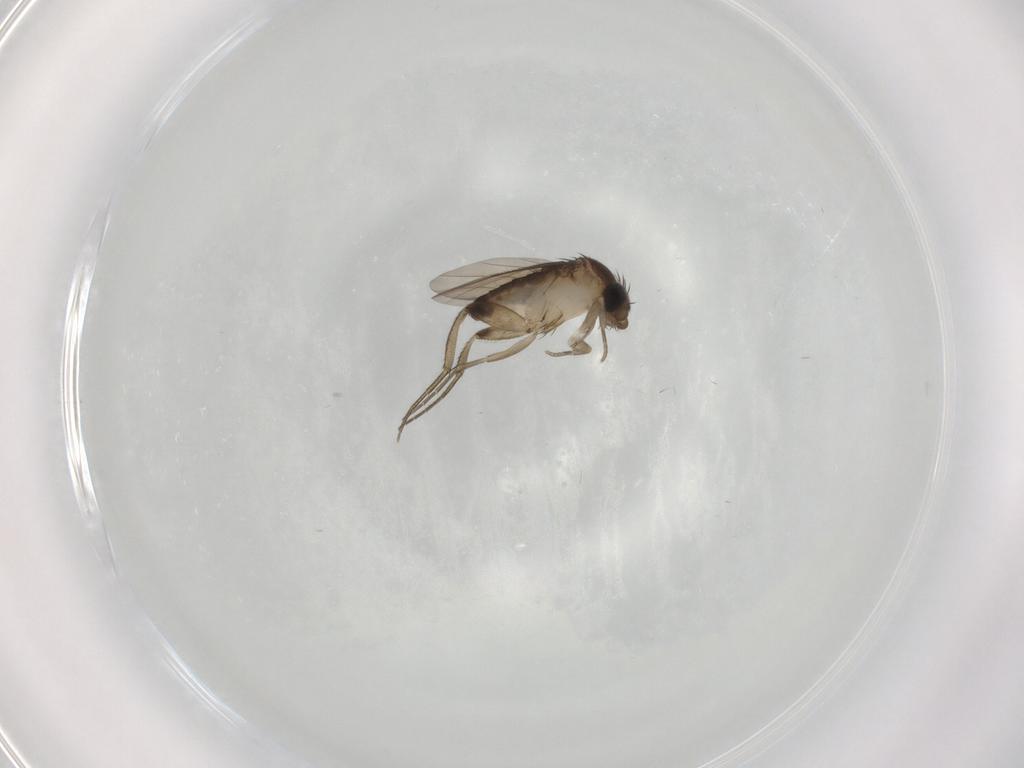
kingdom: Animalia
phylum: Arthropoda
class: Insecta
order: Diptera
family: Phoridae
